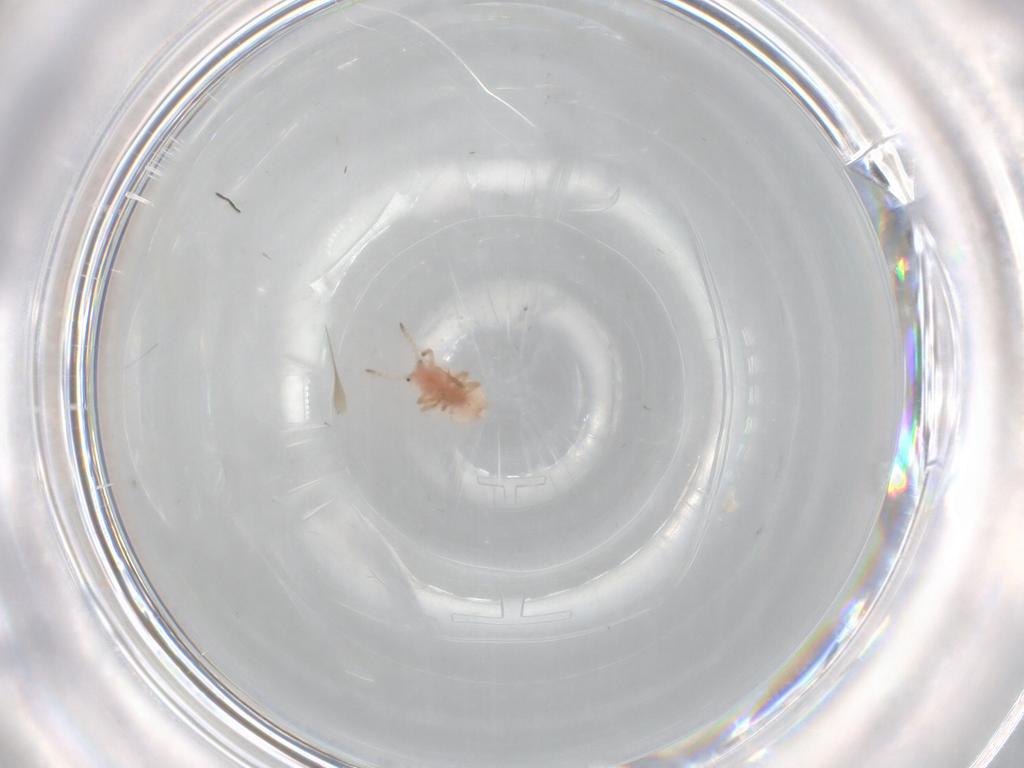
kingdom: Animalia
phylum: Arthropoda
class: Insecta
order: Hemiptera
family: Coccoidea_incertae_sedis
